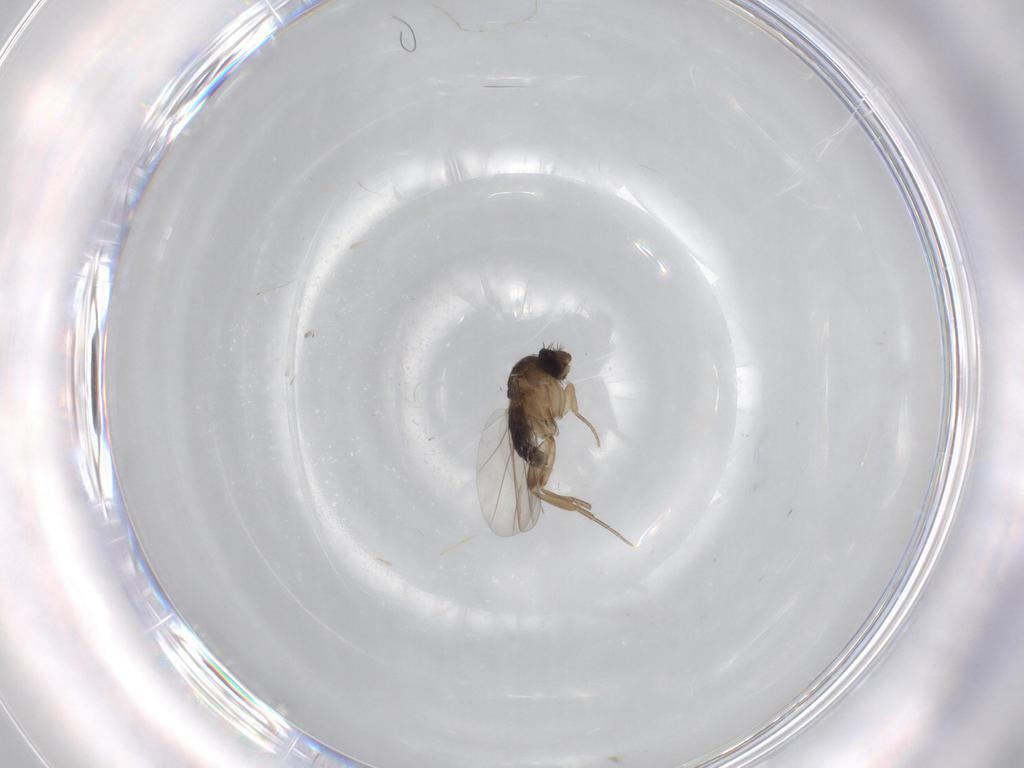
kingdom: Animalia
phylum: Arthropoda
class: Insecta
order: Diptera
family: Phoridae
